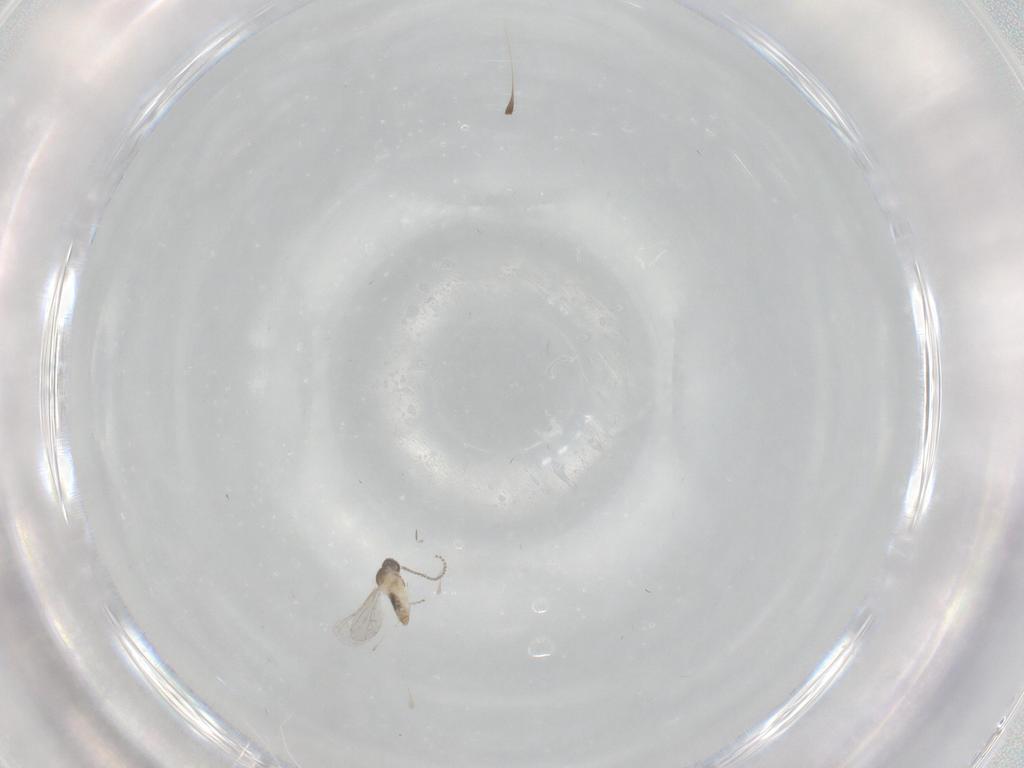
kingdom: Animalia
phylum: Arthropoda
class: Insecta
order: Diptera
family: Cecidomyiidae
